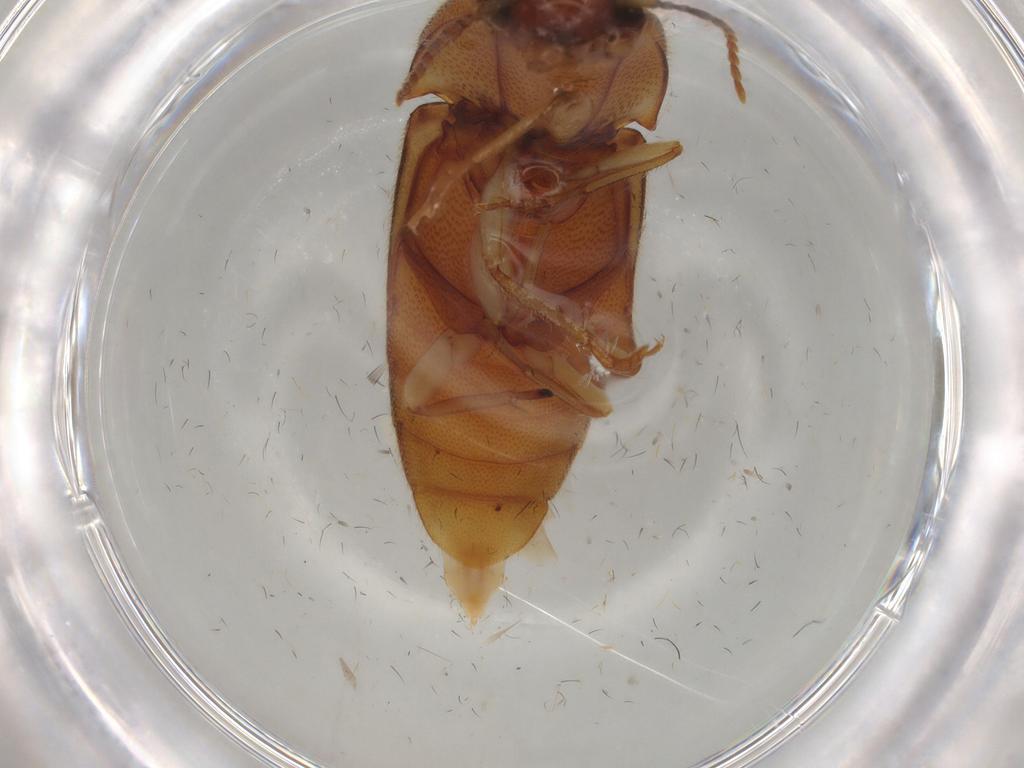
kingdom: Animalia
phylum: Arthropoda
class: Insecta
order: Coleoptera
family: Elateridae
